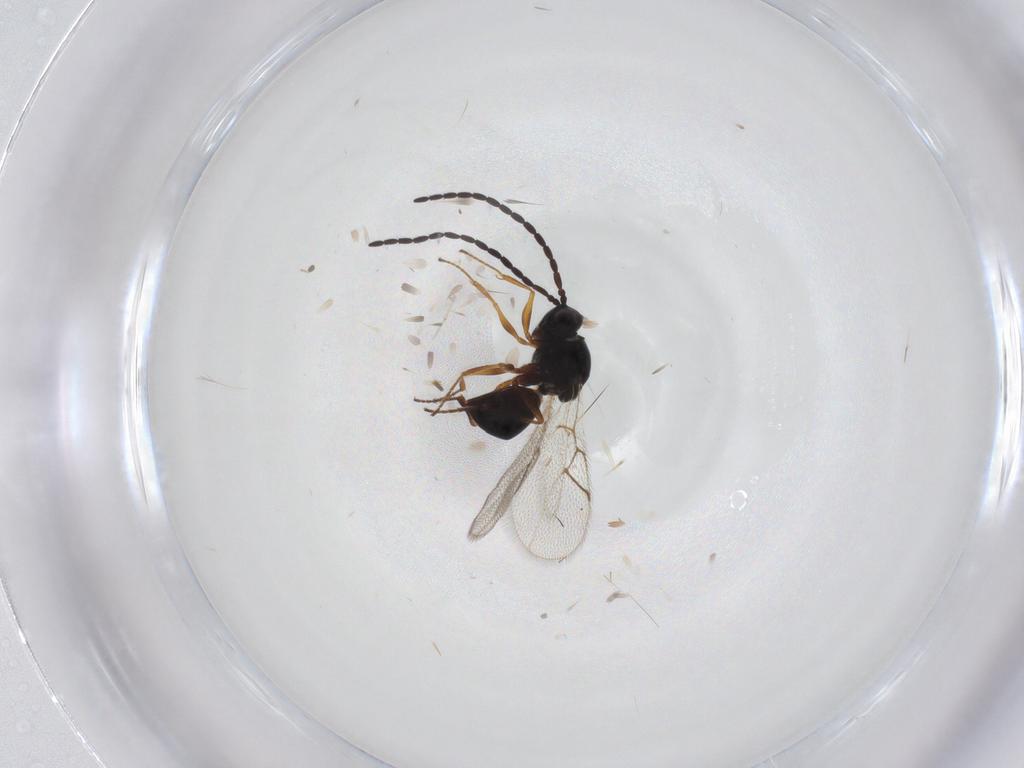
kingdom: Animalia
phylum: Arthropoda
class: Insecta
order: Hymenoptera
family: Figitidae
